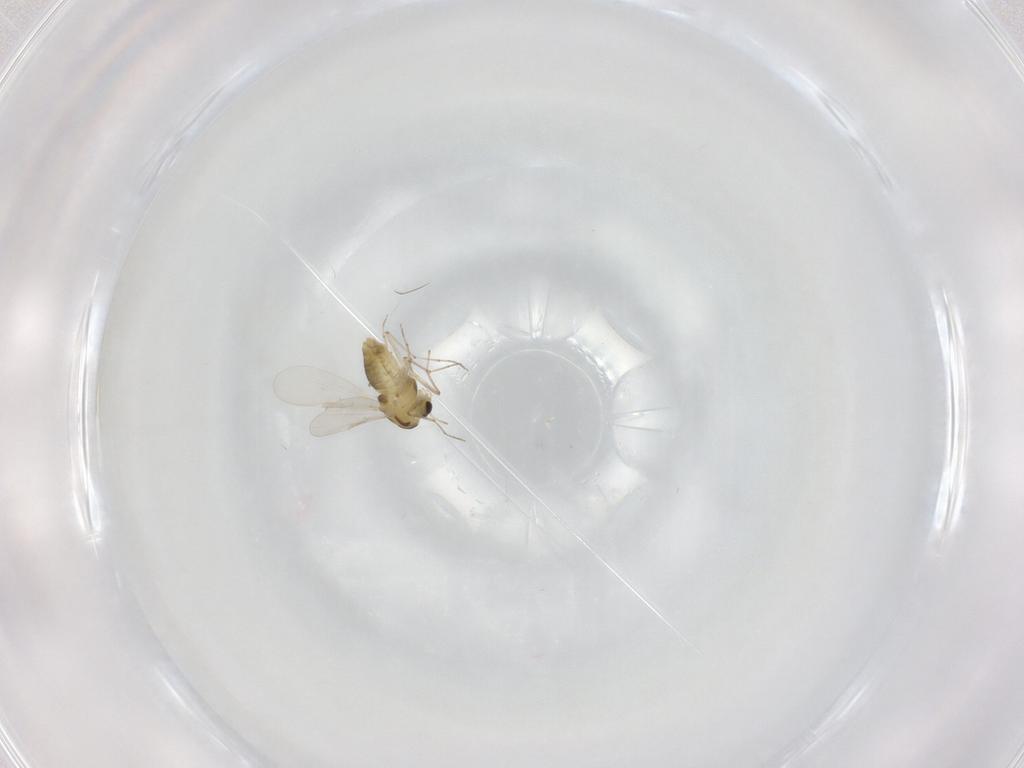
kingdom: Animalia
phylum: Arthropoda
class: Insecta
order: Diptera
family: Chironomidae
